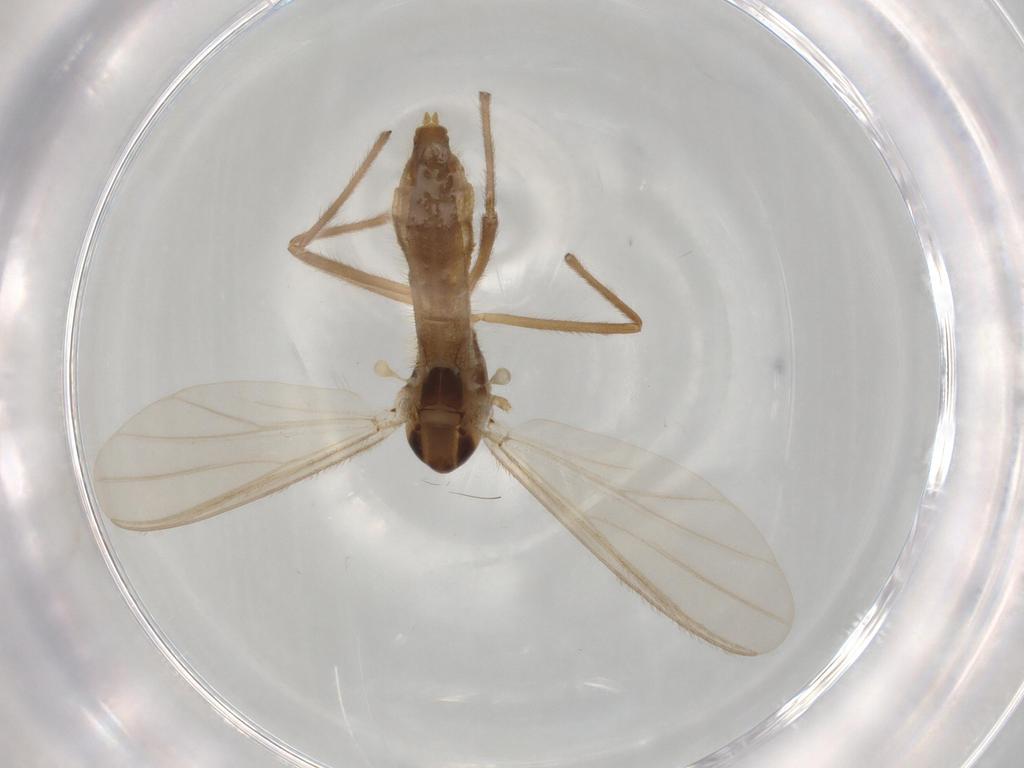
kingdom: Animalia
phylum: Arthropoda
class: Insecta
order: Diptera
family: Chironomidae
